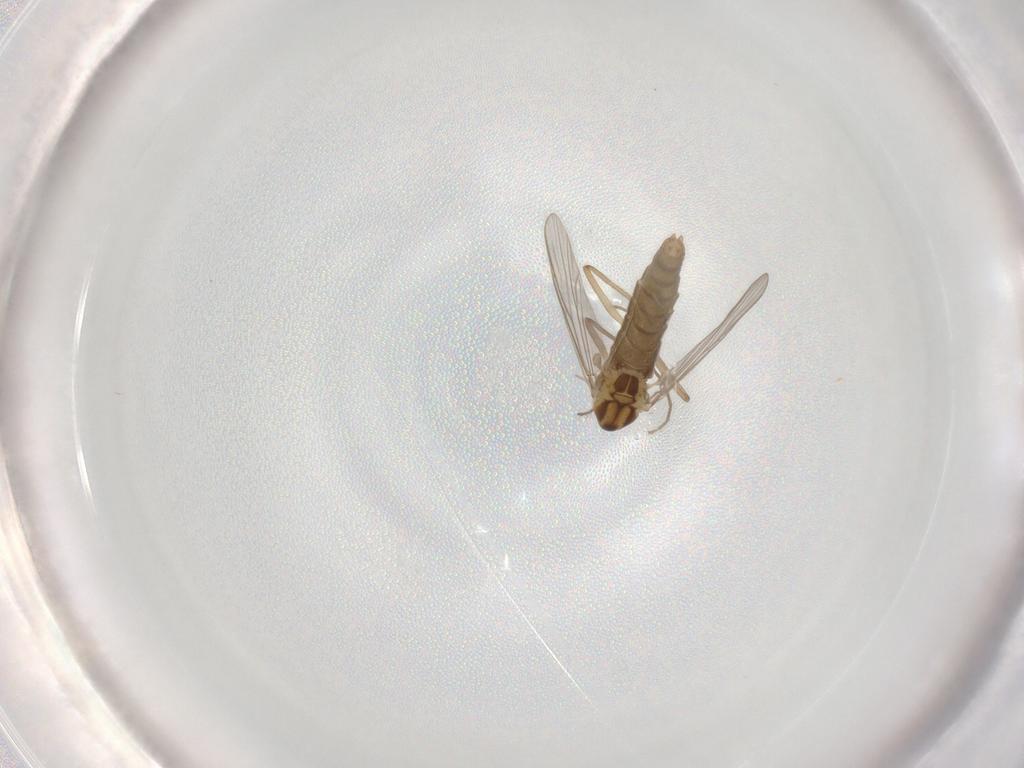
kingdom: Animalia
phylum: Arthropoda
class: Insecta
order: Diptera
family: Chironomidae
